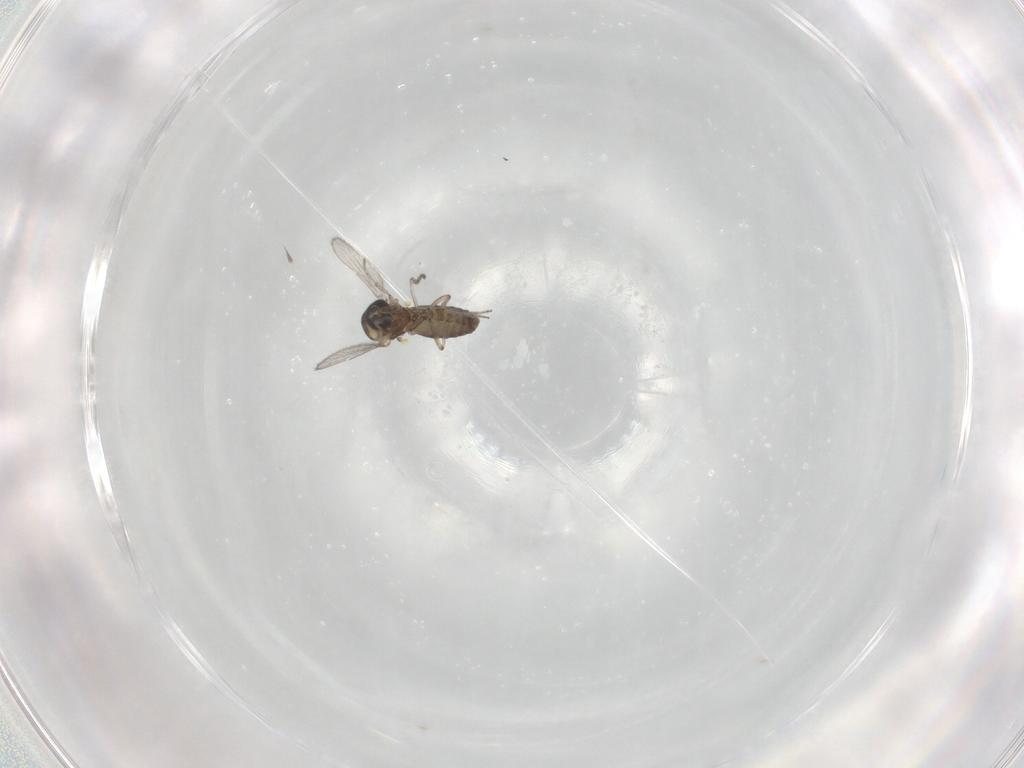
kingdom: Animalia
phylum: Arthropoda
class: Insecta
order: Diptera
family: Ceratopogonidae
